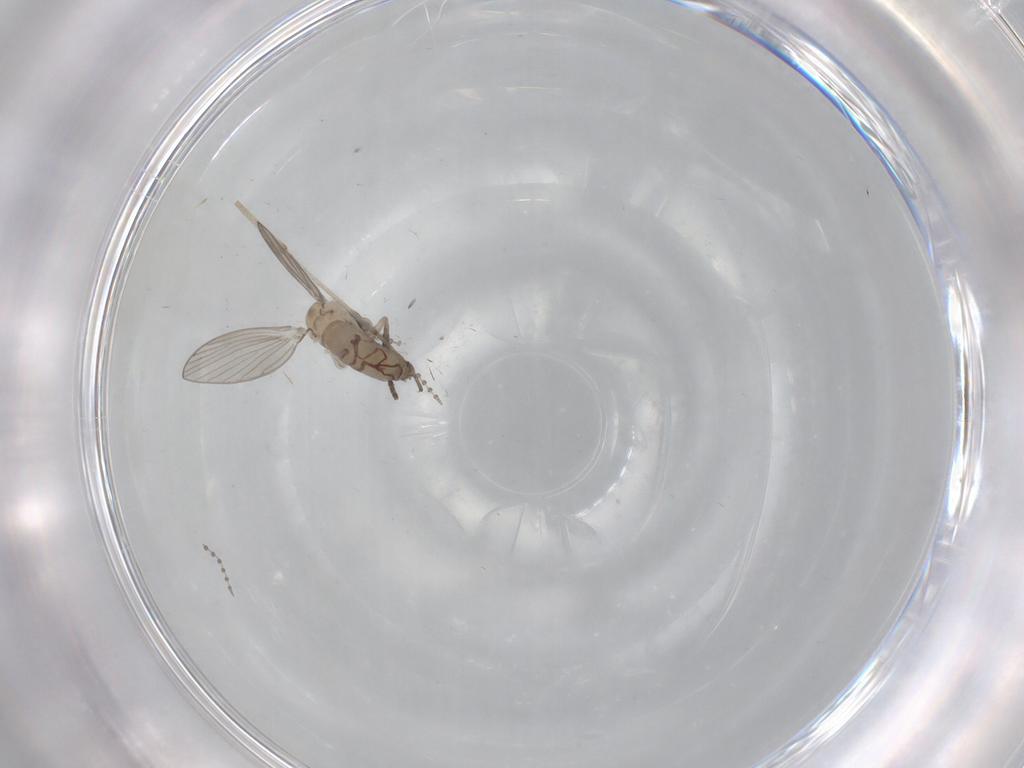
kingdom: Animalia
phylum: Arthropoda
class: Insecta
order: Diptera
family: Psychodidae
